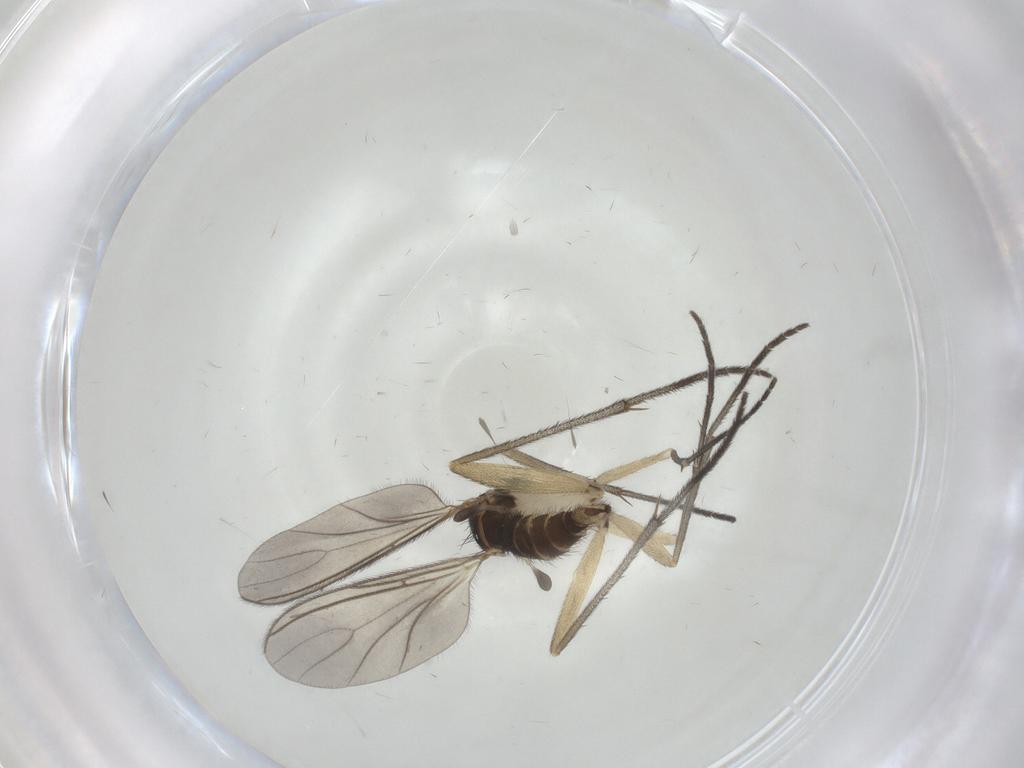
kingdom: Animalia
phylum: Arthropoda
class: Insecta
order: Diptera
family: Sciaridae
